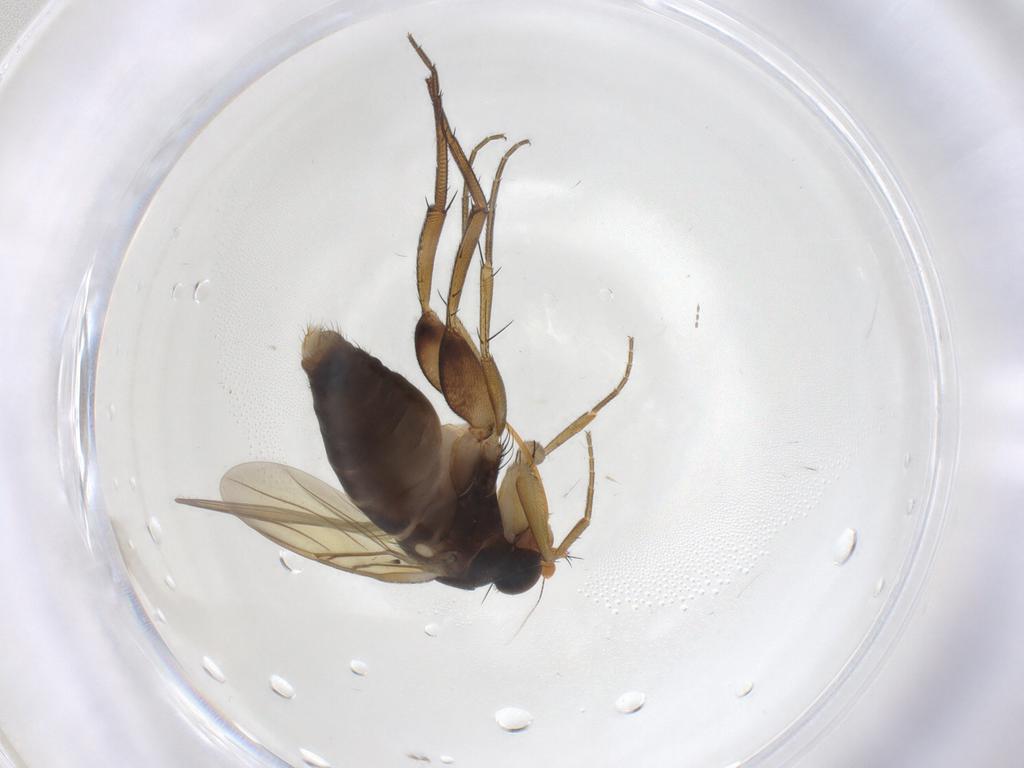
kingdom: Animalia
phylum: Arthropoda
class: Insecta
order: Diptera
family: Phoridae
